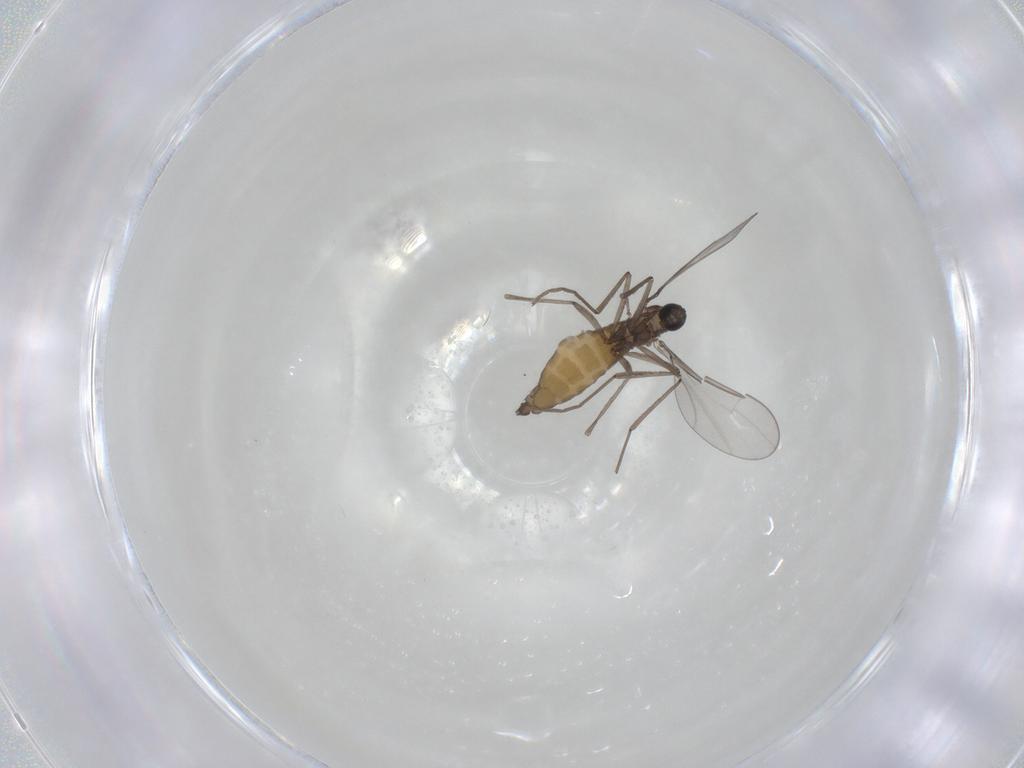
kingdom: Animalia
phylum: Arthropoda
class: Insecta
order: Diptera
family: Cecidomyiidae
